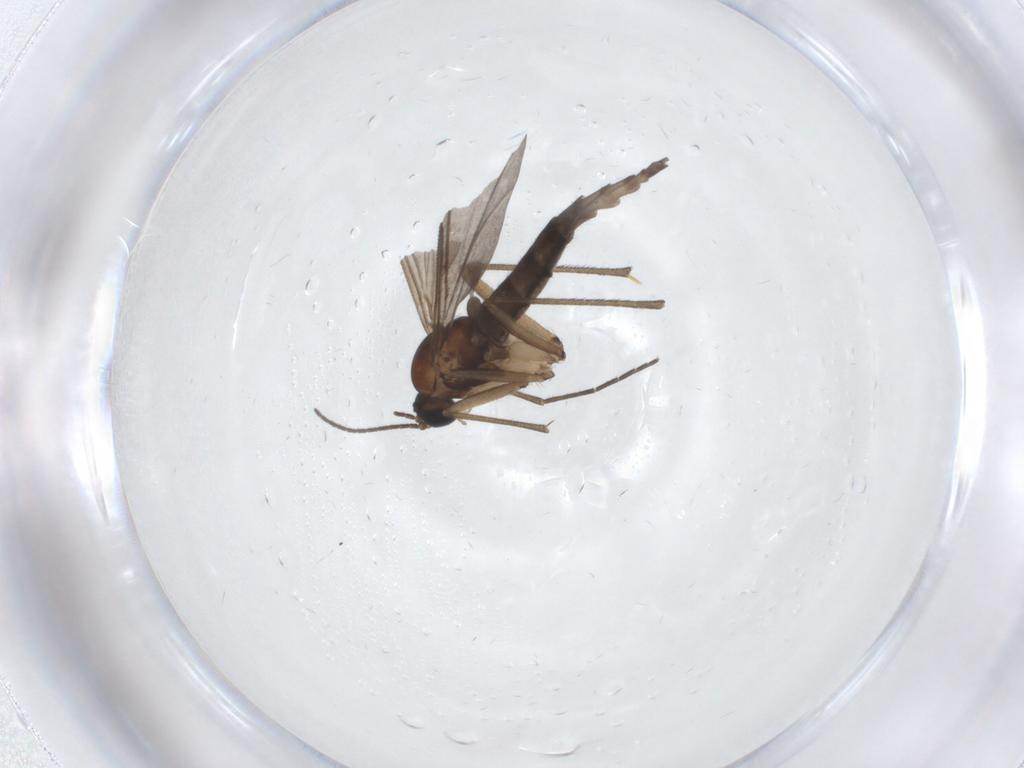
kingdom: Animalia
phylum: Arthropoda
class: Insecta
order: Diptera
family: Sciaridae
